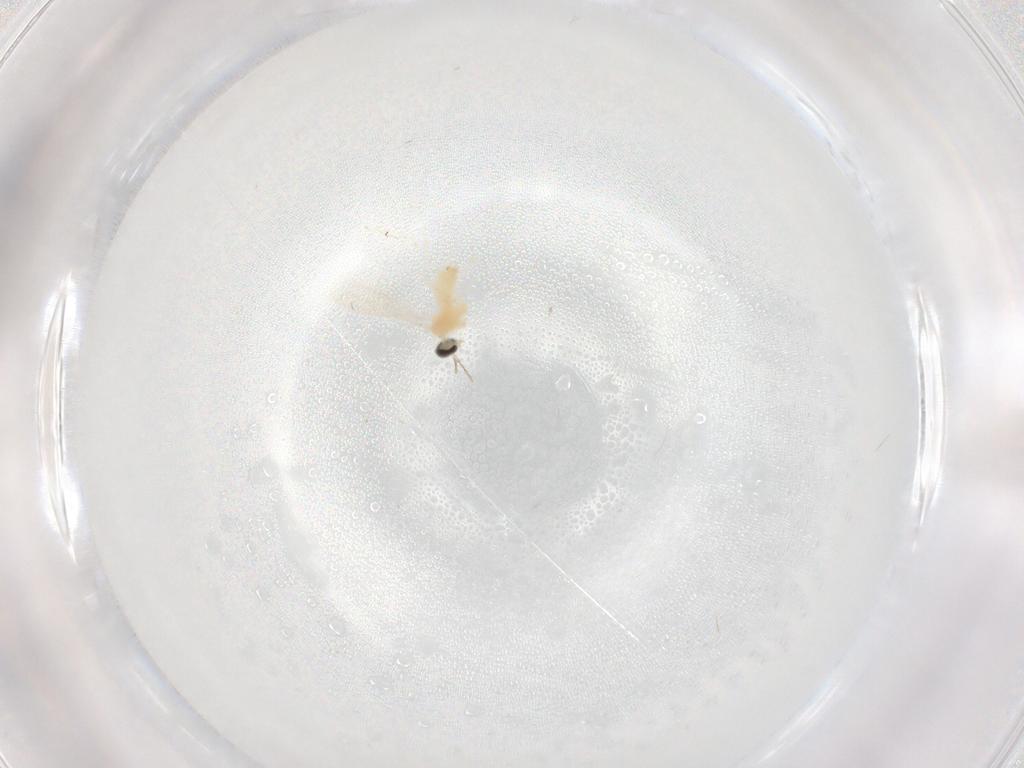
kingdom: Animalia
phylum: Arthropoda
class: Insecta
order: Diptera
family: Cecidomyiidae
